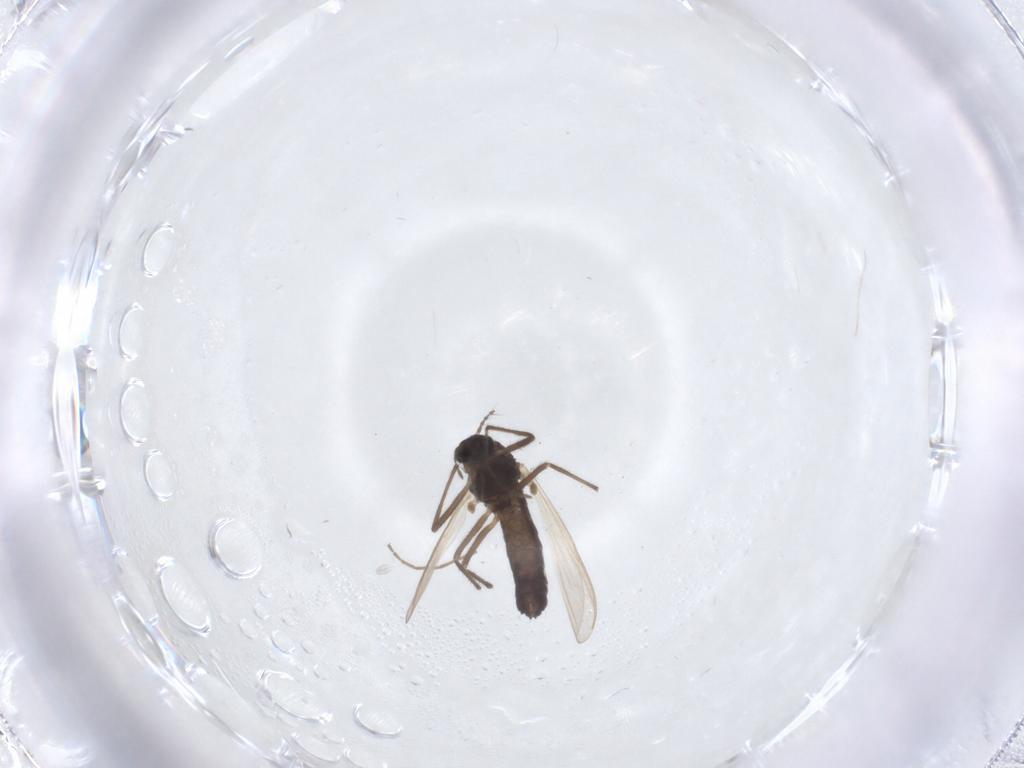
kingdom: Animalia
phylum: Arthropoda
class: Insecta
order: Diptera
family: Chironomidae
